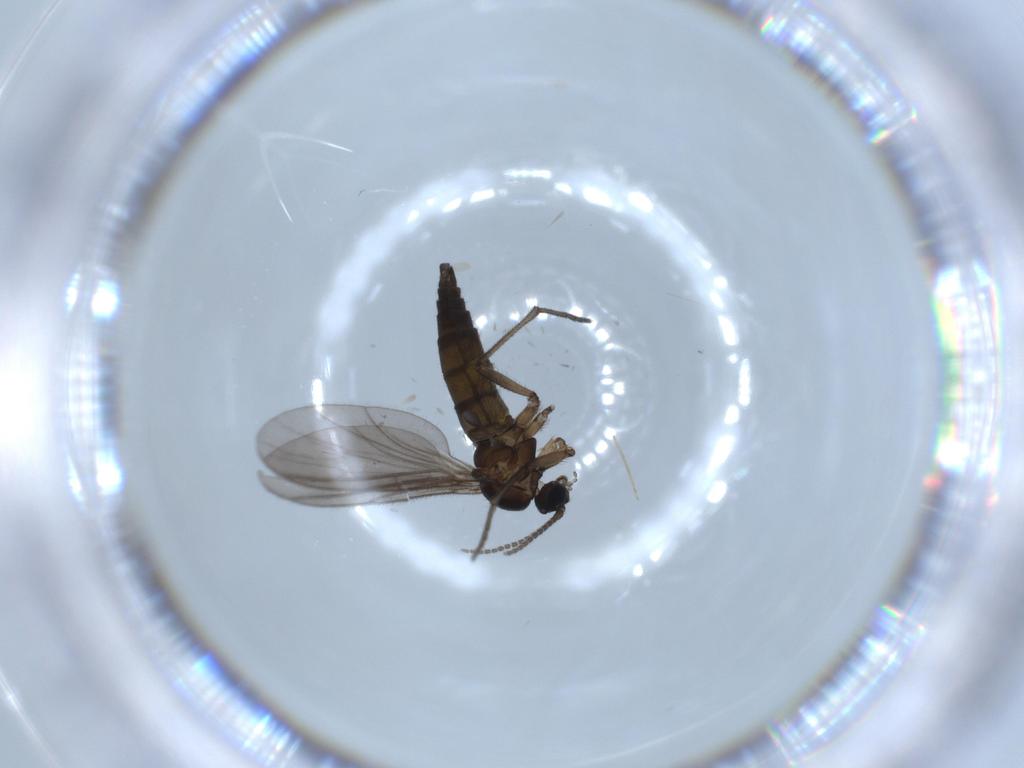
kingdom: Animalia
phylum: Arthropoda
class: Insecta
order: Diptera
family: Sciaridae
